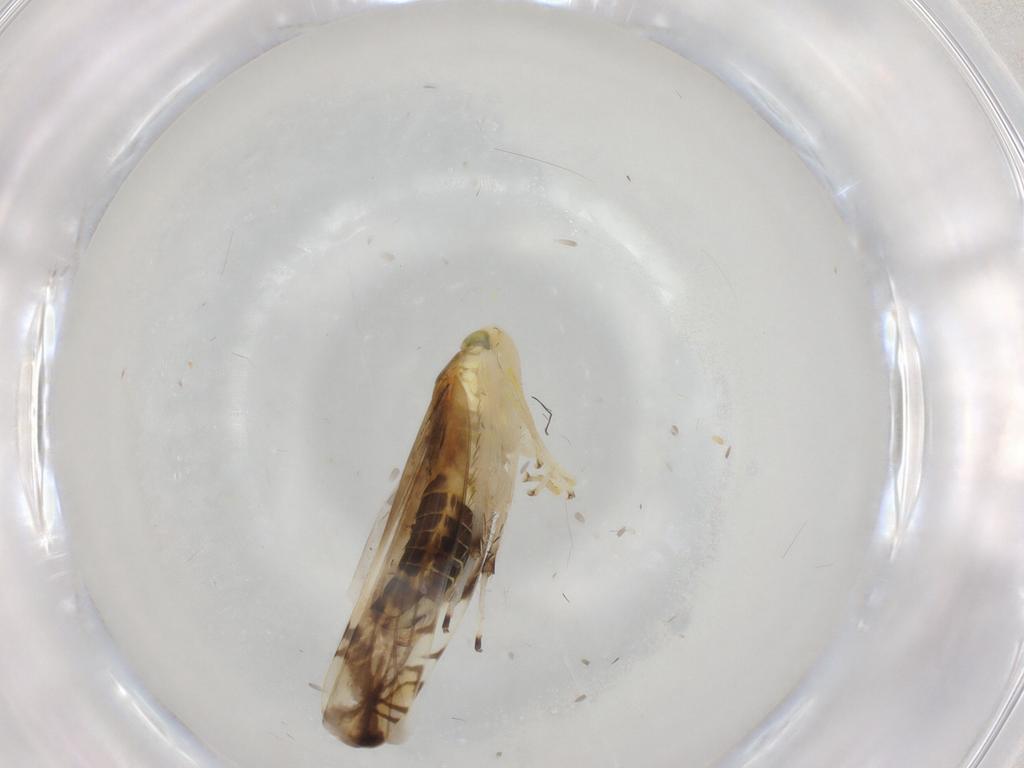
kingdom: Animalia
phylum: Arthropoda
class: Insecta
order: Hemiptera
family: Cicadellidae
